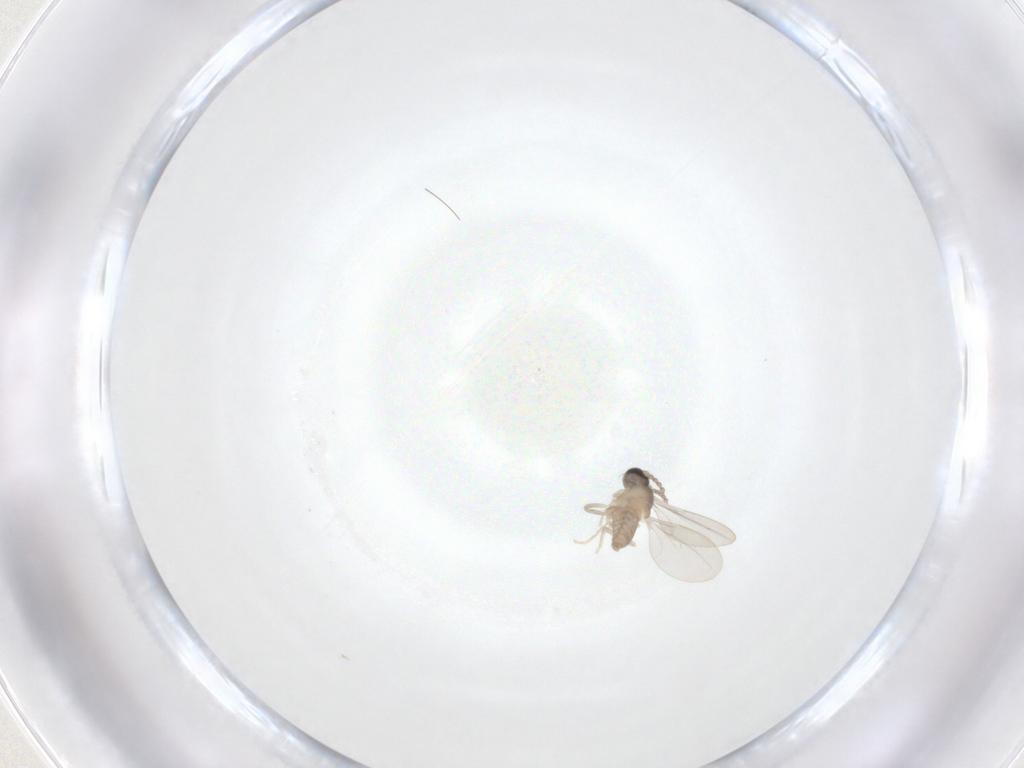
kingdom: Animalia
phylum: Arthropoda
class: Insecta
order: Diptera
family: Cecidomyiidae
